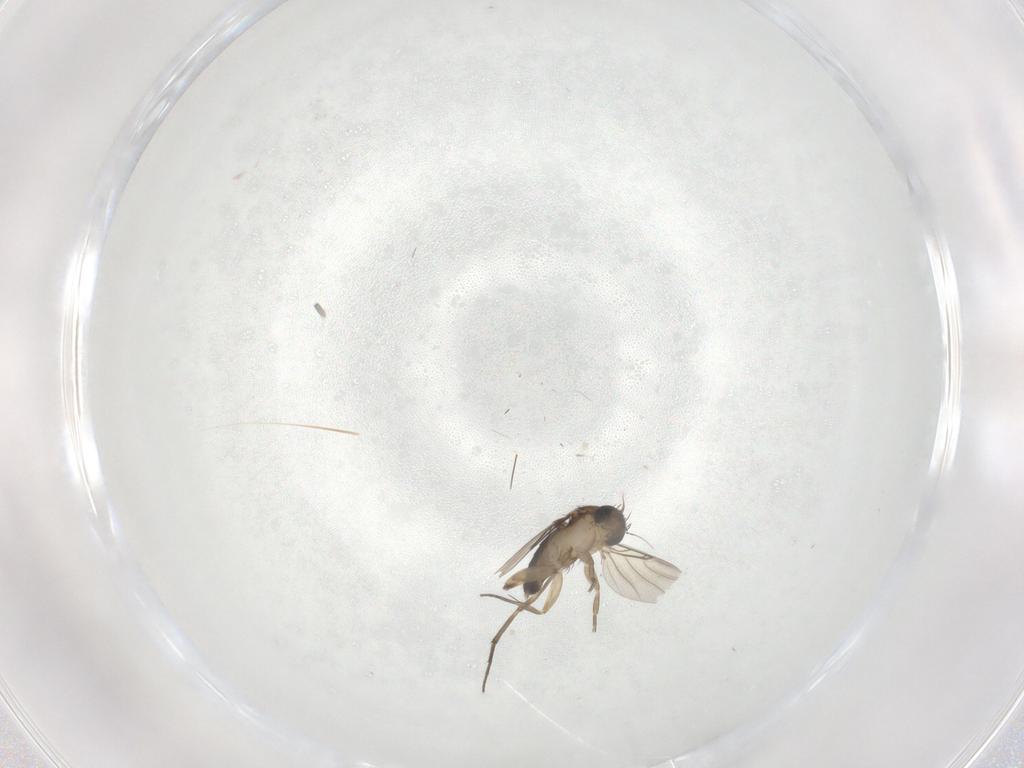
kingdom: Animalia
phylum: Arthropoda
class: Insecta
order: Diptera
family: Phoridae
